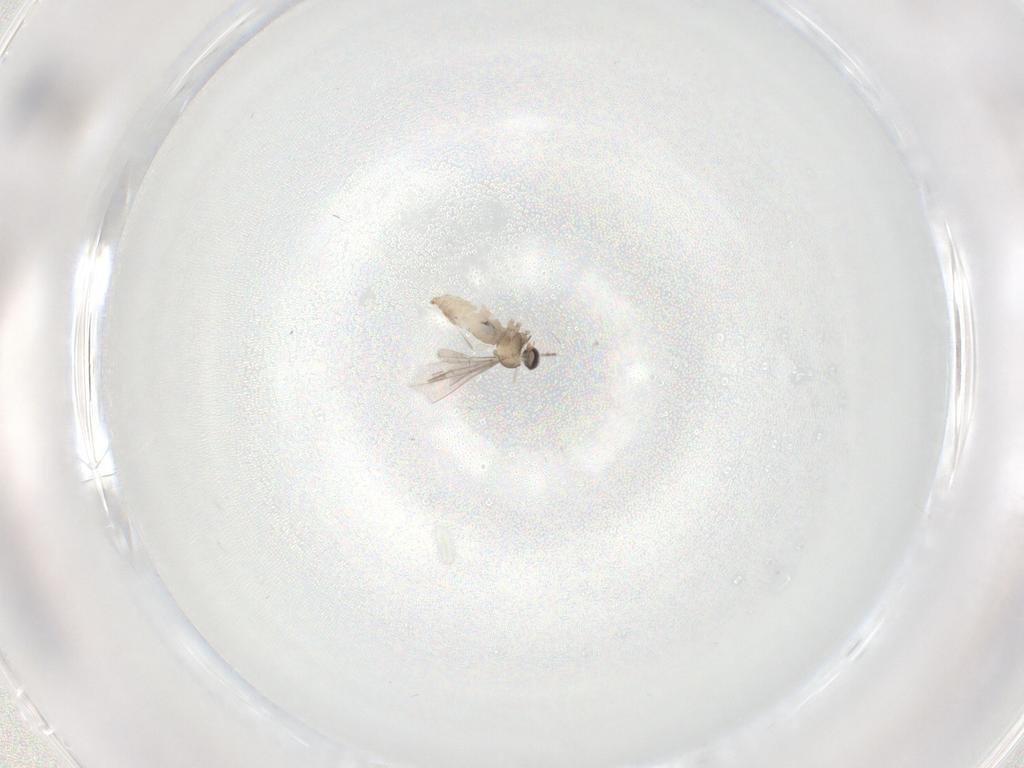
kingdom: Animalia
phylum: Arthropoda
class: Insecta
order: Diptera
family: Cecidomyiidae
